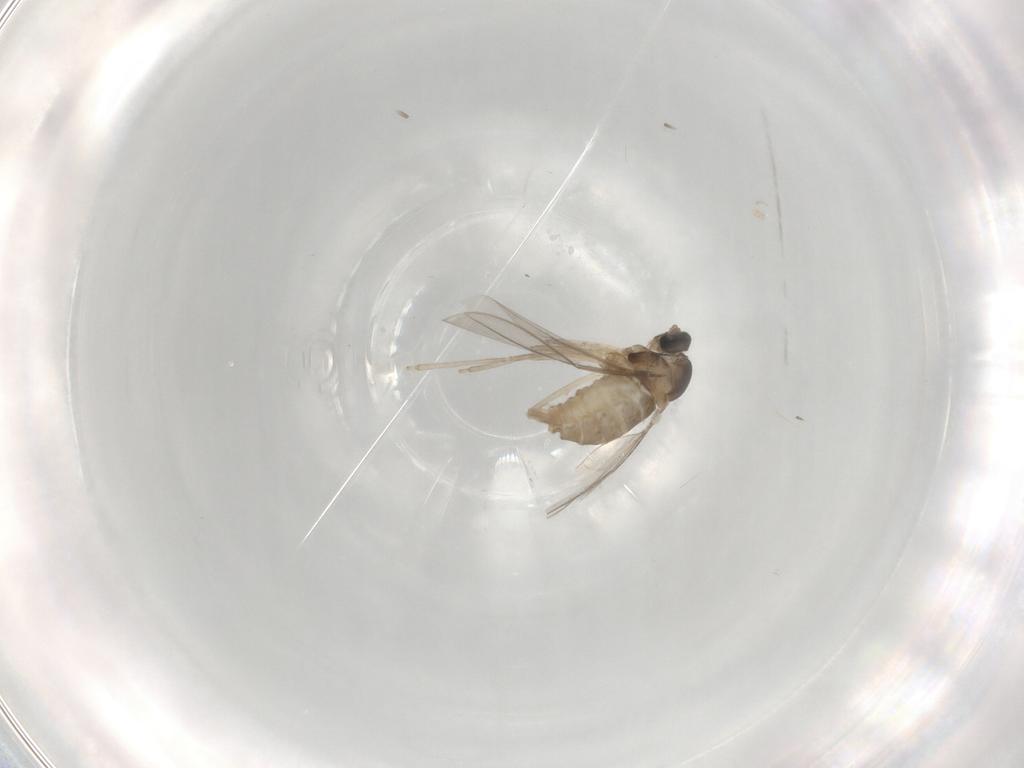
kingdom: Animalia
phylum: Arthropoda
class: Insecta
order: Diptera
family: Cecidomyiidae
